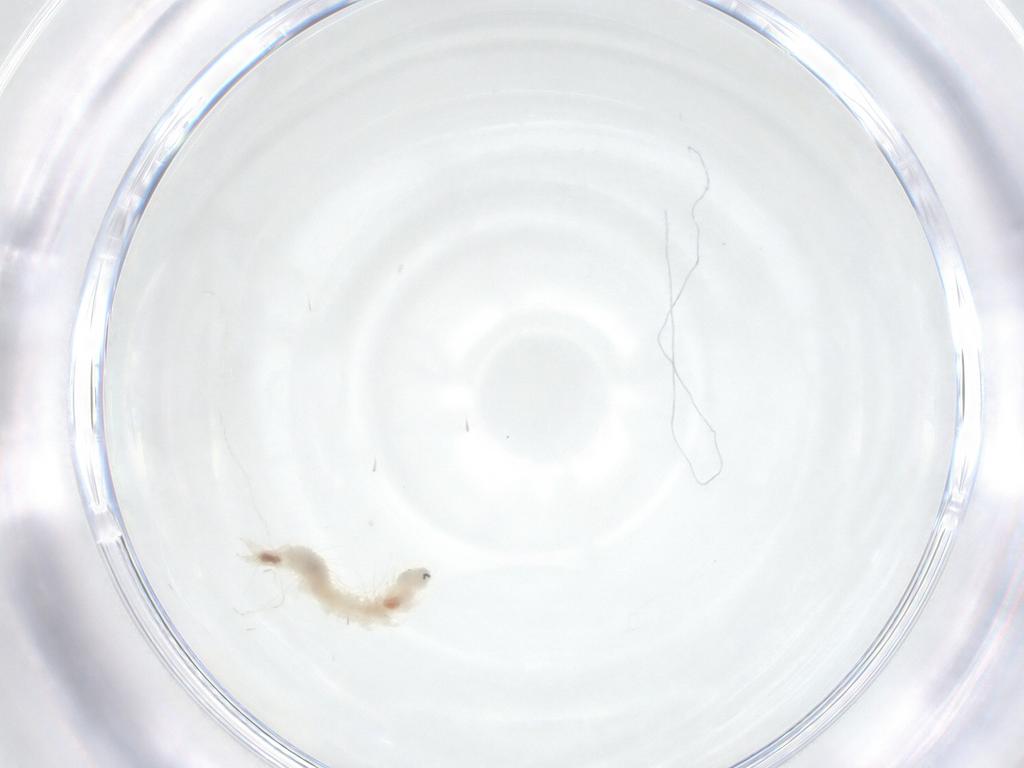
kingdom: Animalia
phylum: Arthropoda
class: Insecta
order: Lepidoptera
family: Crambidae
